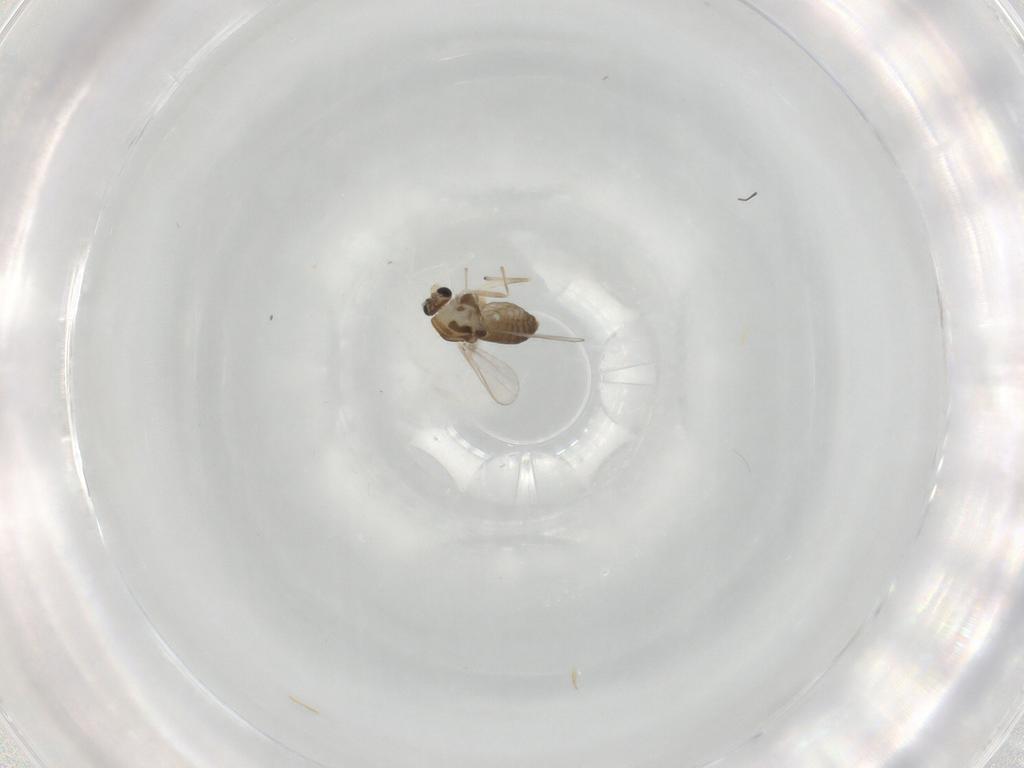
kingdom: Animalia
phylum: Arthropoda
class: Insecta
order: Diptera
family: Chironomidae
